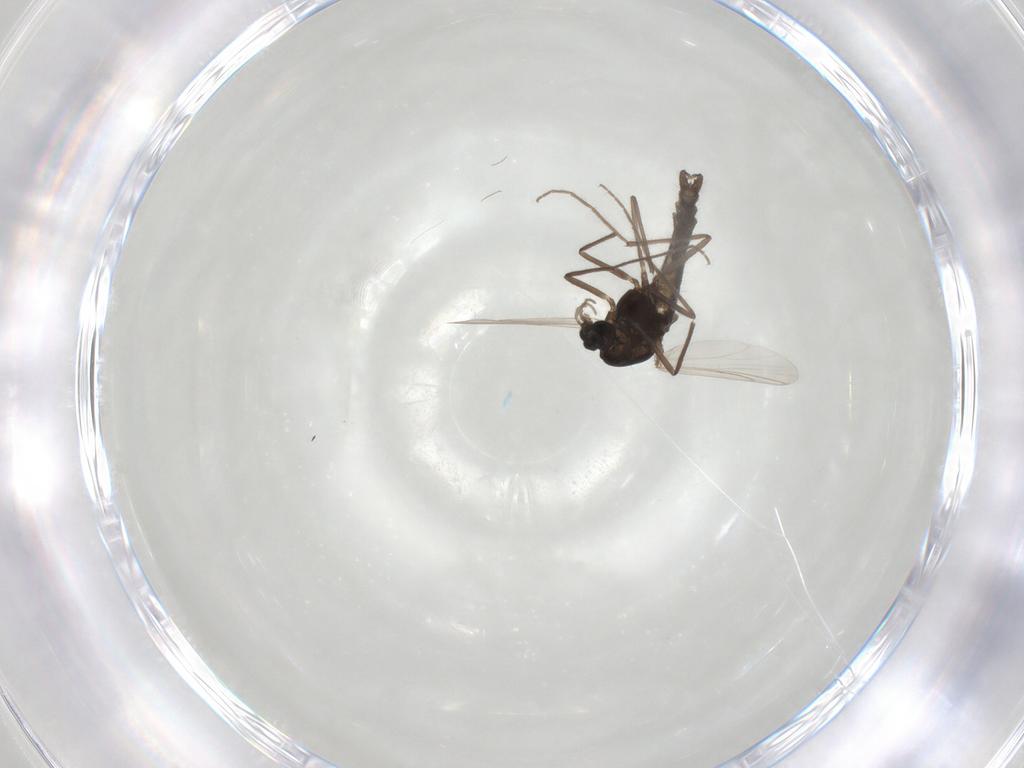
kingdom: Animalia
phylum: Arthropoda
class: Insecta
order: Diptera
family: Chironomidae
